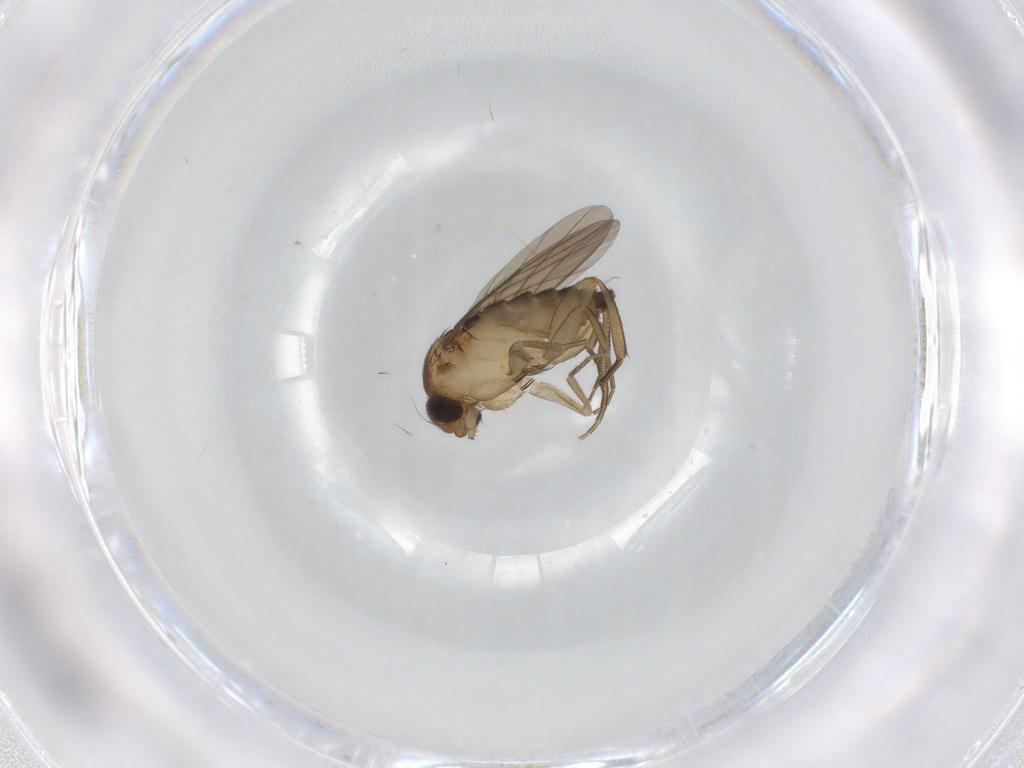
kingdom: Animalia
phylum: Arthropoda
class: Insecta
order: Diptera
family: Phoridae
